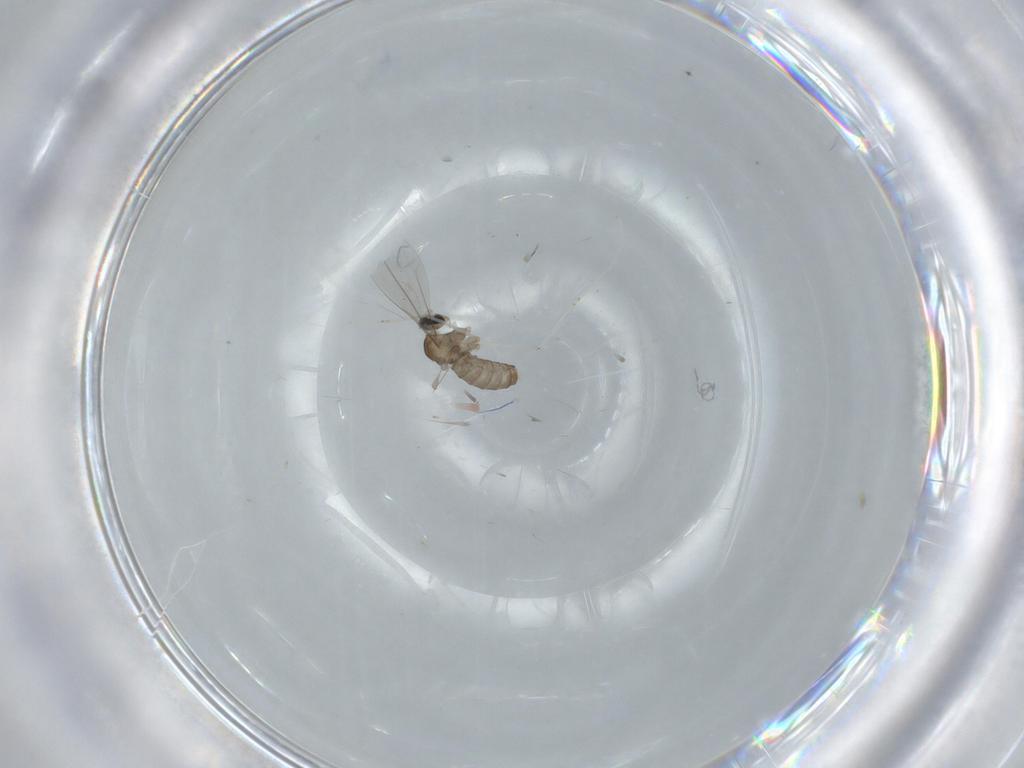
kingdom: Animalia
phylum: Arthropoda
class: Insecta
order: Diptera
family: Cecidomyiidae
